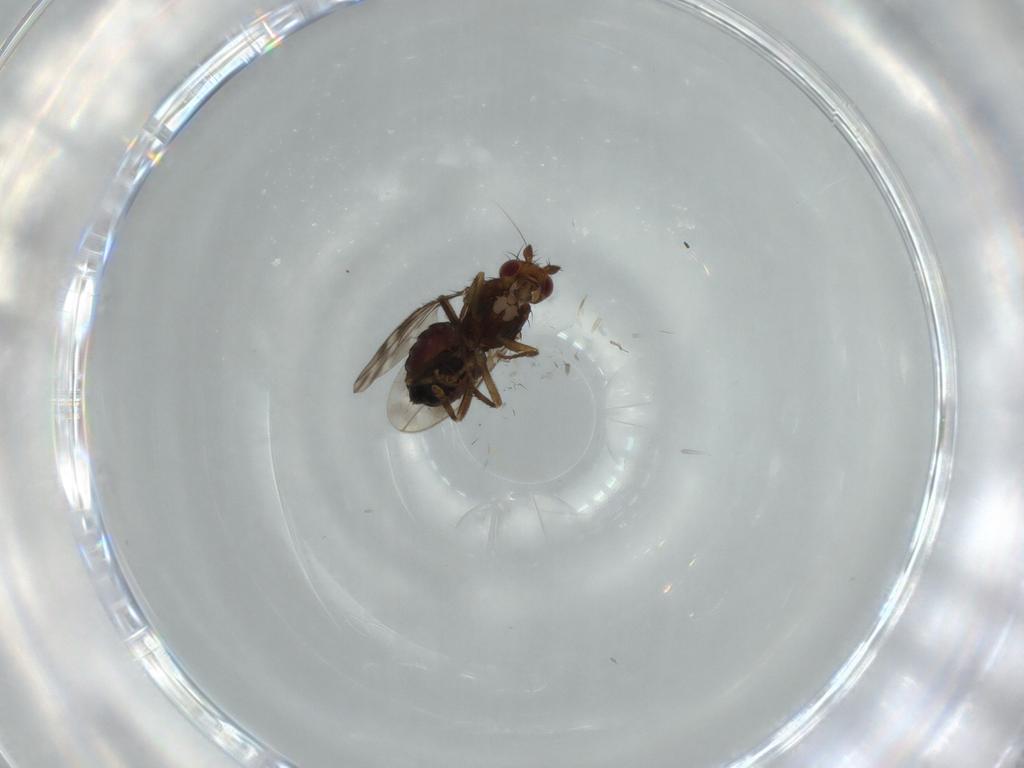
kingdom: Animalia
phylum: Arthropoda
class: Insecta
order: Diptera
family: Sphaeroceridae
